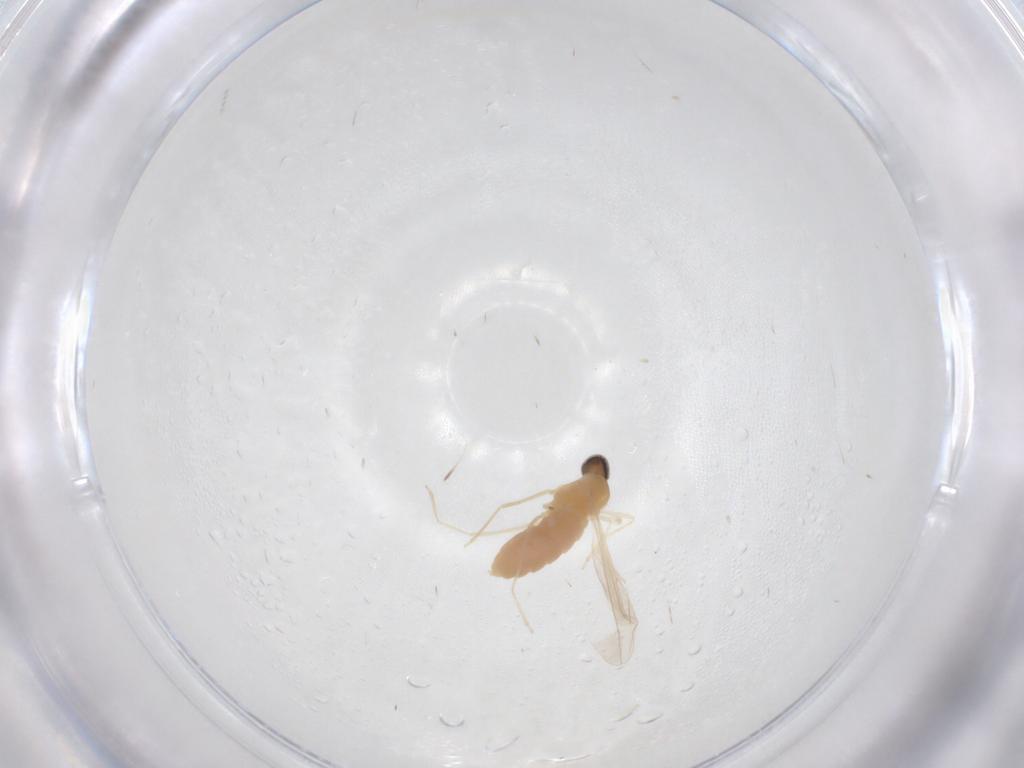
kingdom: Animalia
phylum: Arthropoda
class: Insecta
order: Diptera
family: Cecidomyiidae
